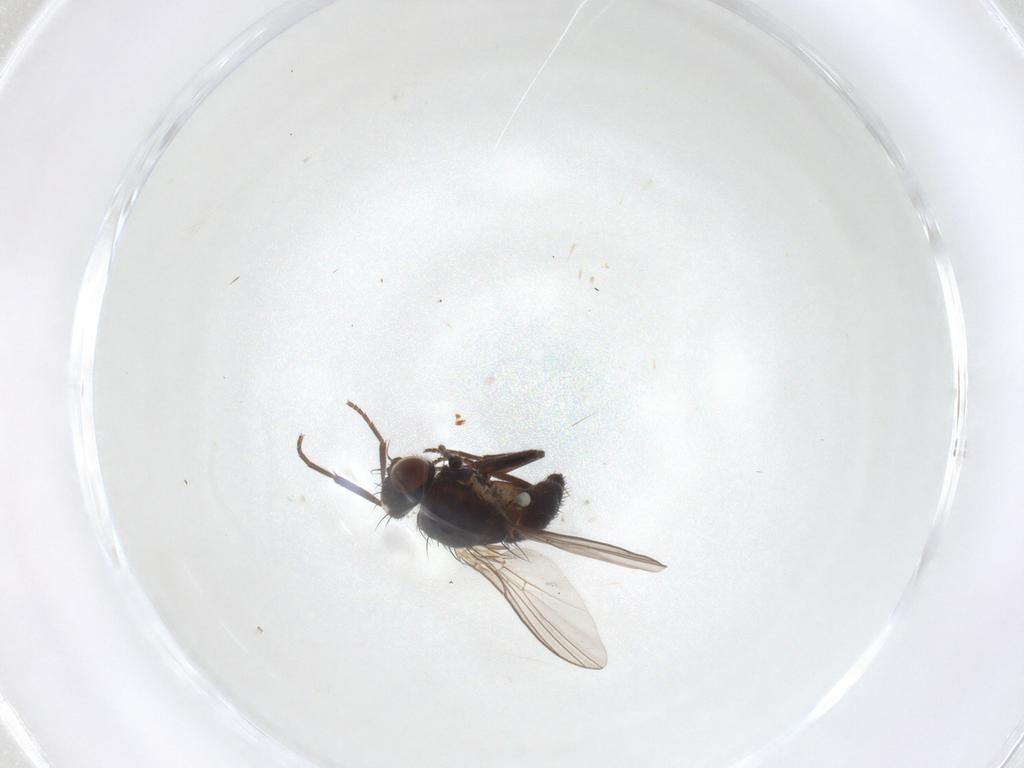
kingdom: Animalia
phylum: Arthropoda
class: Insecta
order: Diptera
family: Agromyzidae
